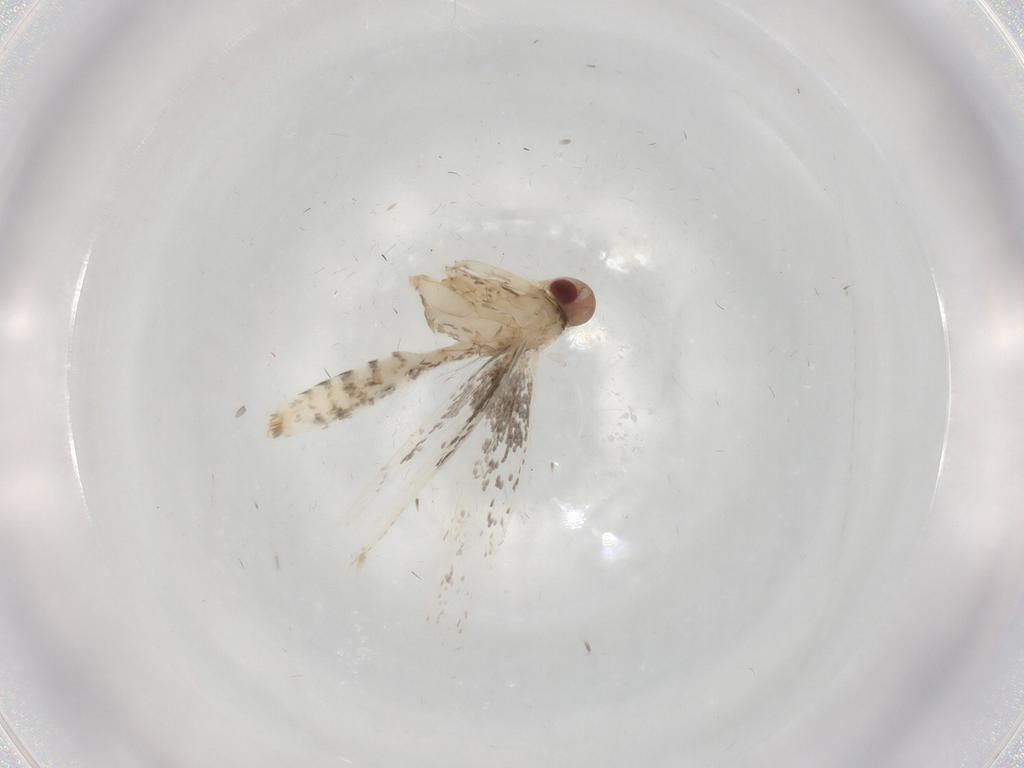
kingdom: Animalia
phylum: Arthropoda
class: Insecta
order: Lepidoptera
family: Gracillariidae
